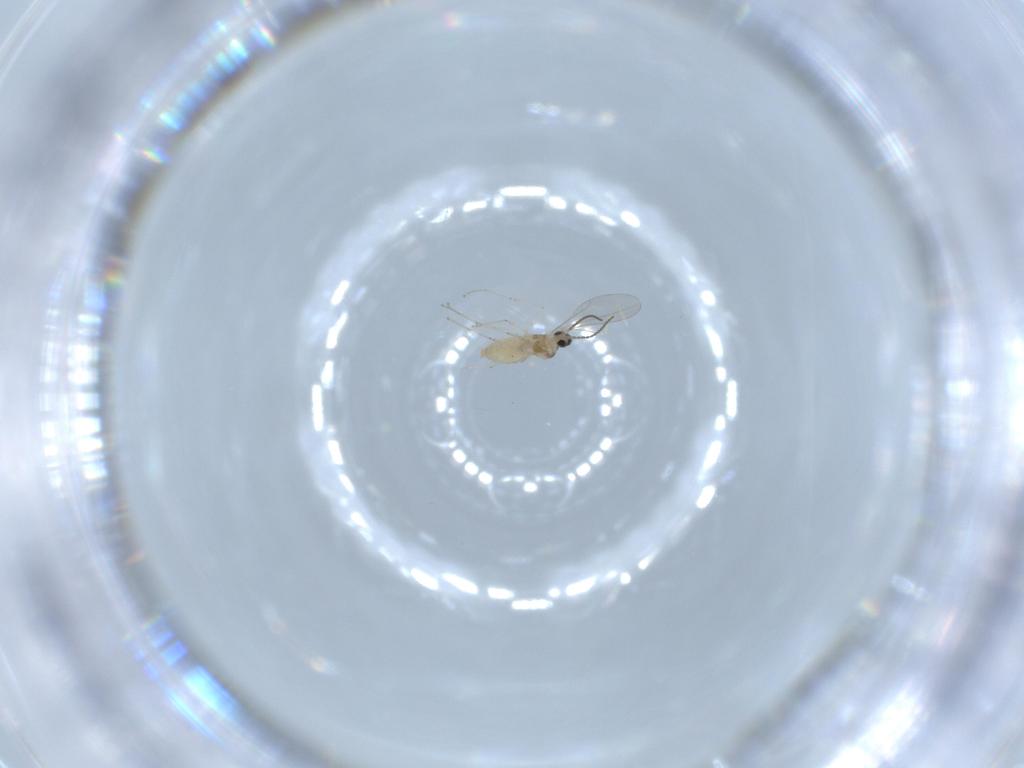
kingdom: Animalia
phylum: Arthropoda
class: Insecta
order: Diptera
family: Cecidomyiidae
